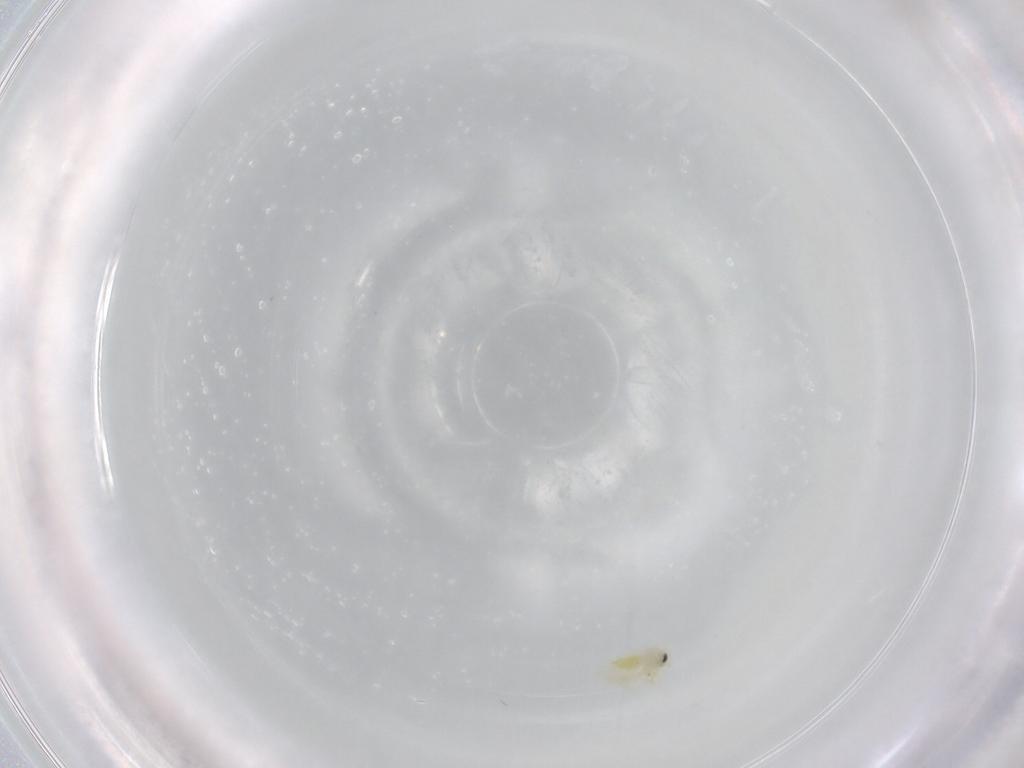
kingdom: Animalia
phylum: Arthropoda
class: Insecta
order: Hemiptera
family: Aleyrodidae
